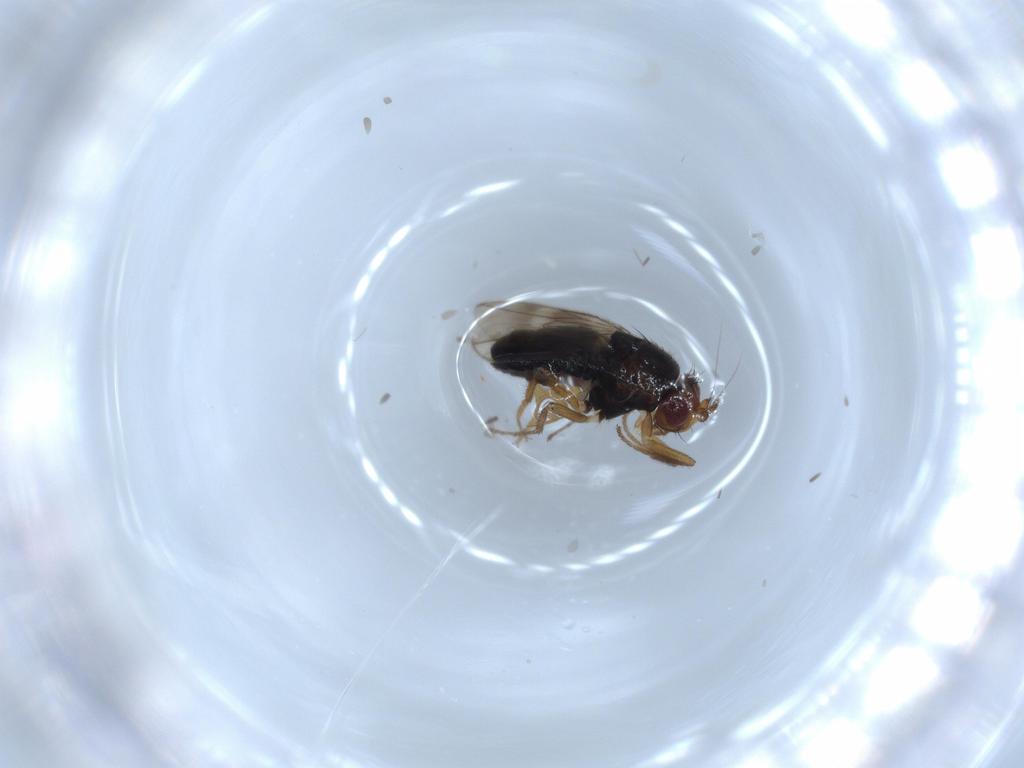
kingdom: Animalia
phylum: Arthropoda
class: Insecta
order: Diptera
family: Sphaeroceridae
